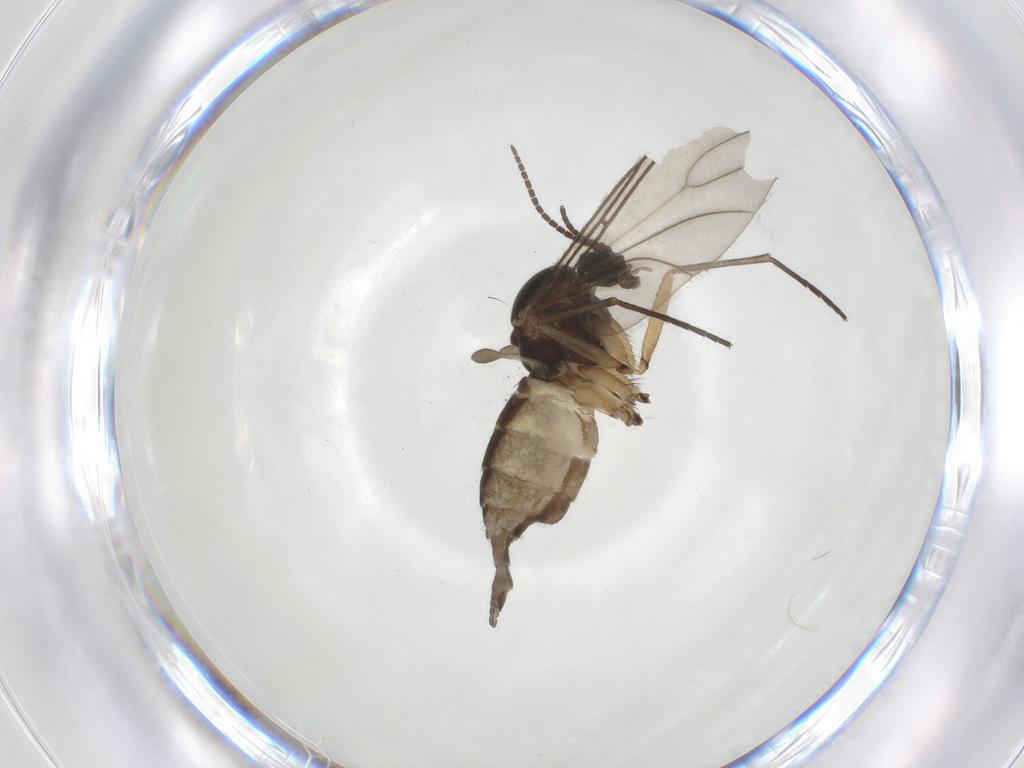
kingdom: Animalia
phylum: Arthropoda
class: Insecta
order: Diptera
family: Sciaridae
